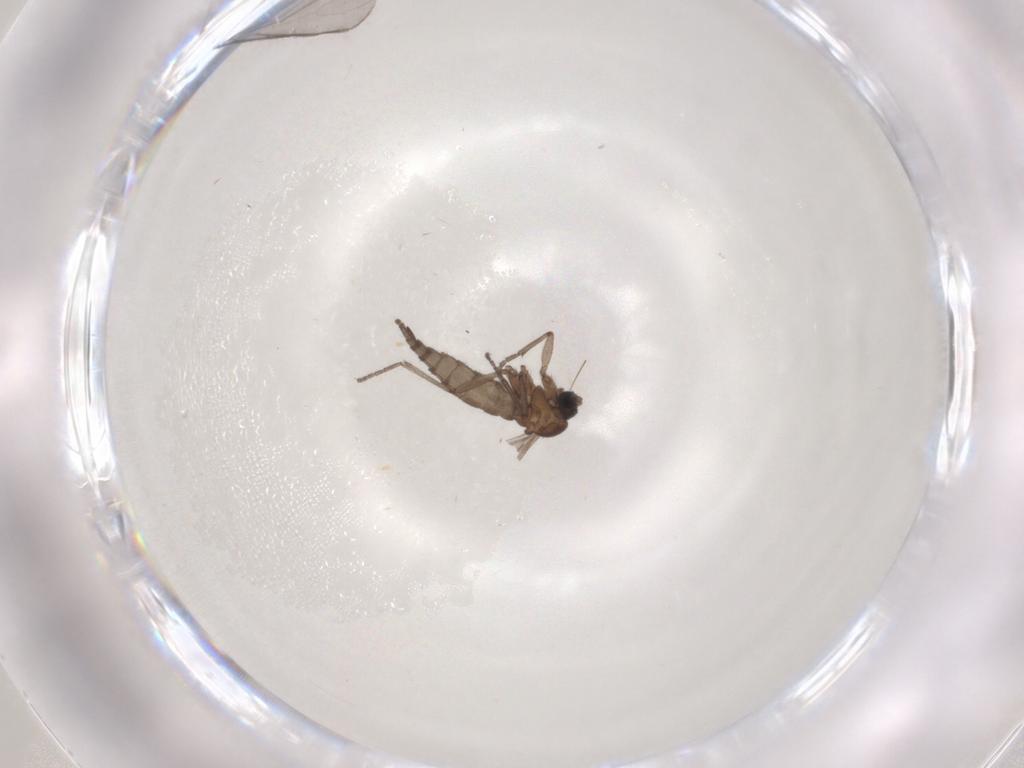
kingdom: Animalia
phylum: Arthropoda
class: Insecta
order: Diptera
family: Sciaridae
